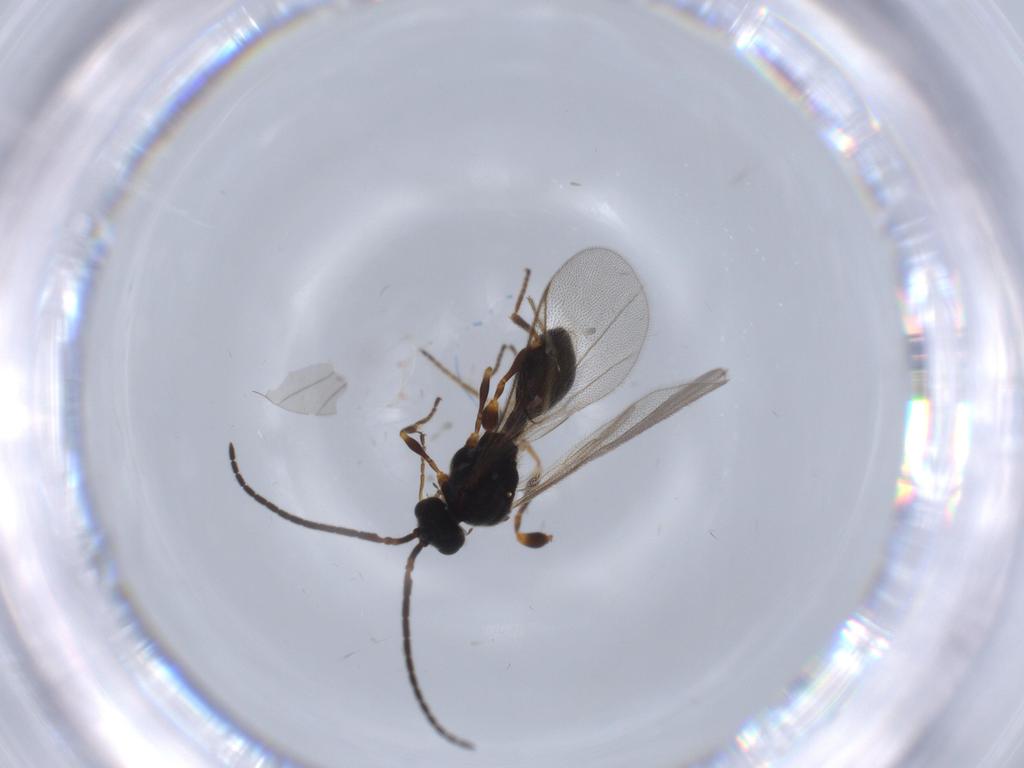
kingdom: Animalia
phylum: Arthropoda
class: Insecta
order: Hymenoptera
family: Diapriidae
